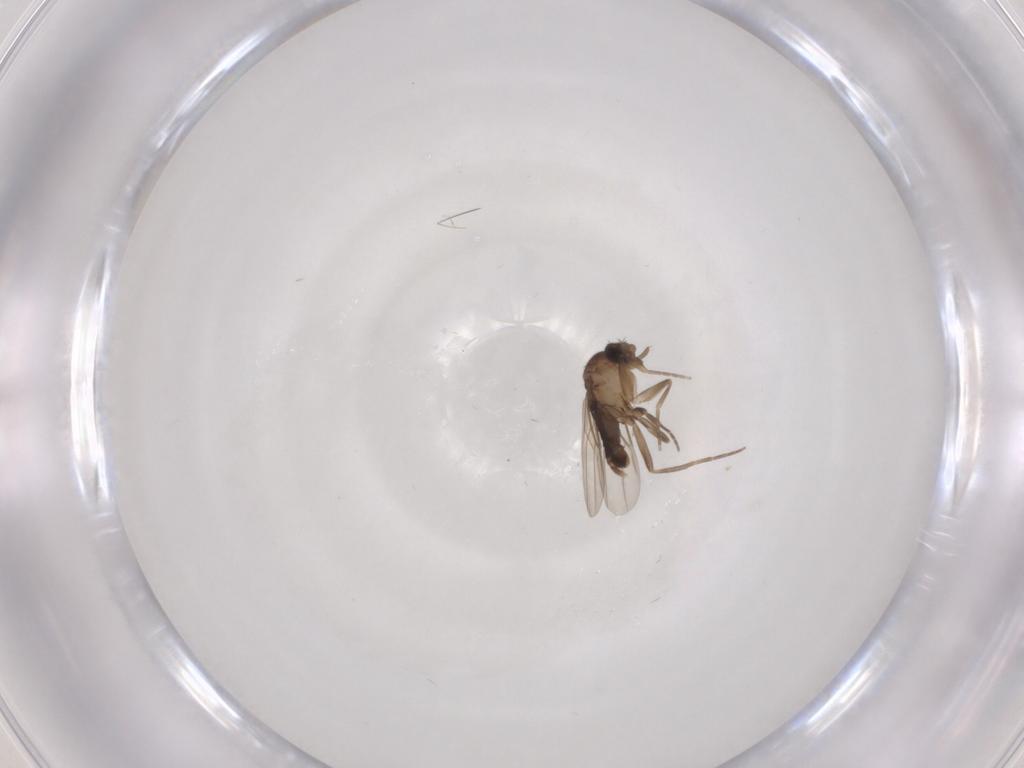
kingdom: Animalia
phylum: Arthropoda
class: Insecta
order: Diptera
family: Phoridae
